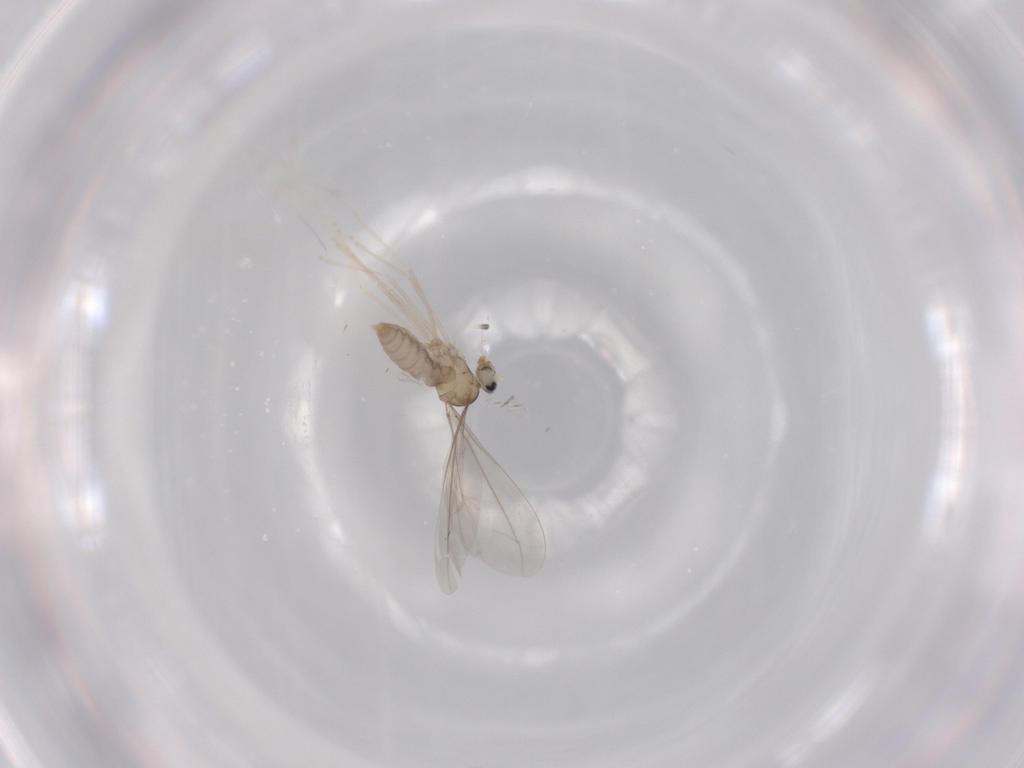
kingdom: Animalia
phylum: Arthropoda
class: Insecta
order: Diptera
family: Cecidomyiidae
